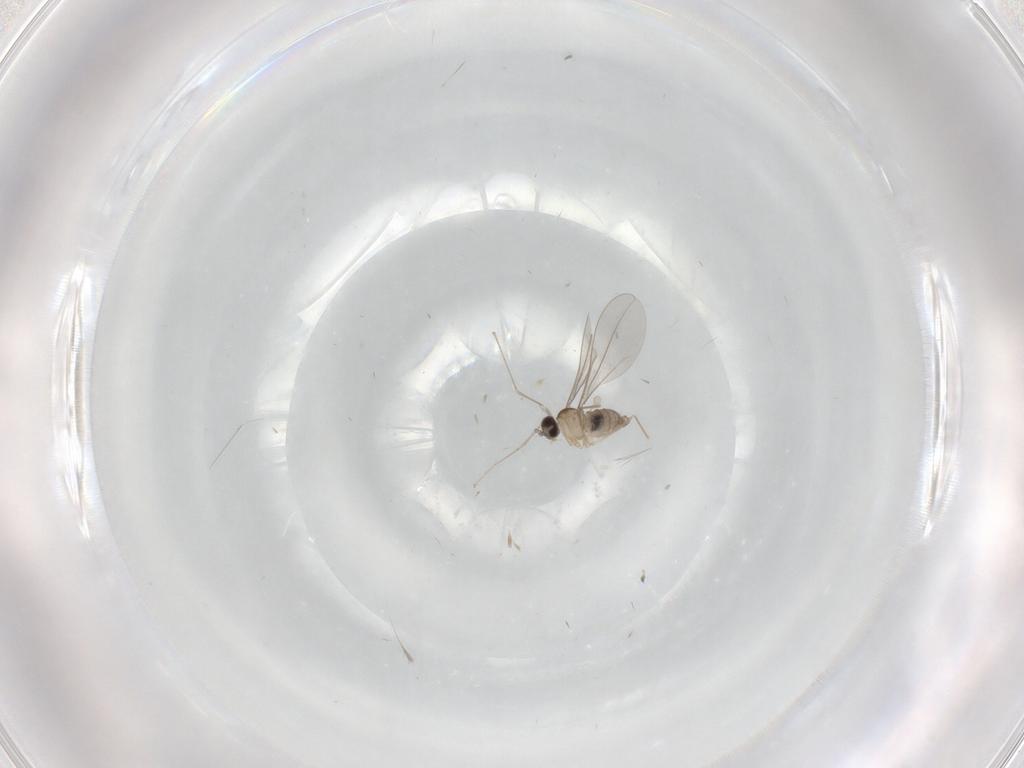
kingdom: Animalia
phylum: Arthropoda
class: Insecta
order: Diptera
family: Cecidomyiidae
